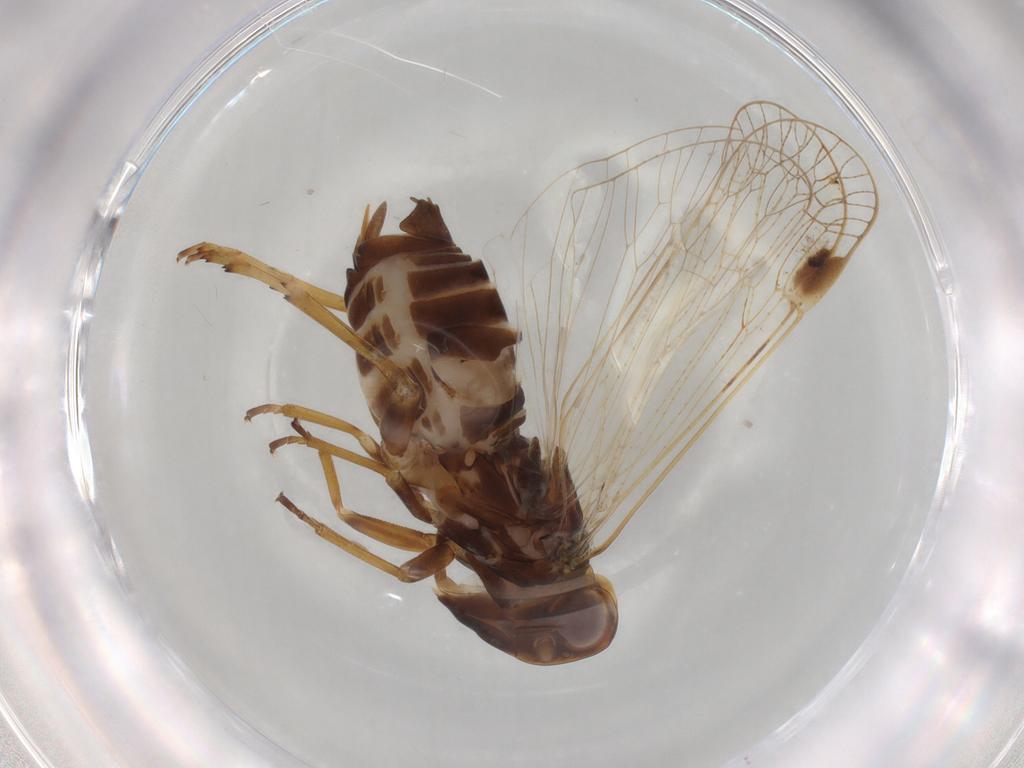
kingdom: Animalia
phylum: Arthropoda
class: Insecta
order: Hemiptera
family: Cixiidae
